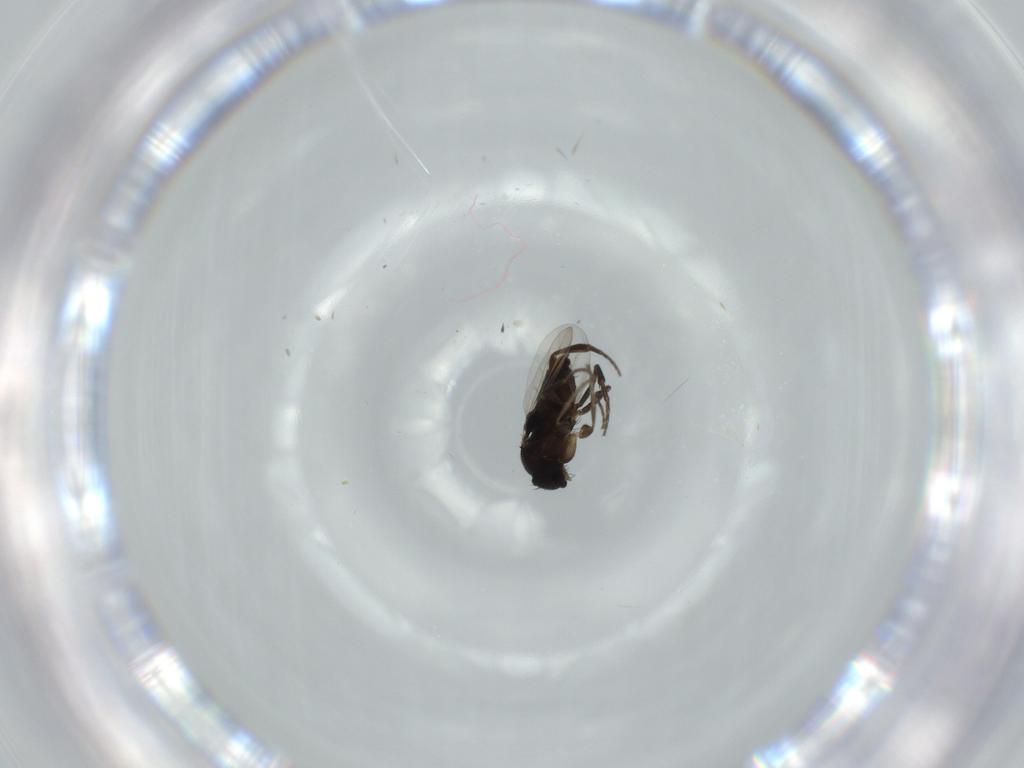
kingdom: Animalia
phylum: Arthropoda
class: Insecta
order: Diptera
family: Phoridae
